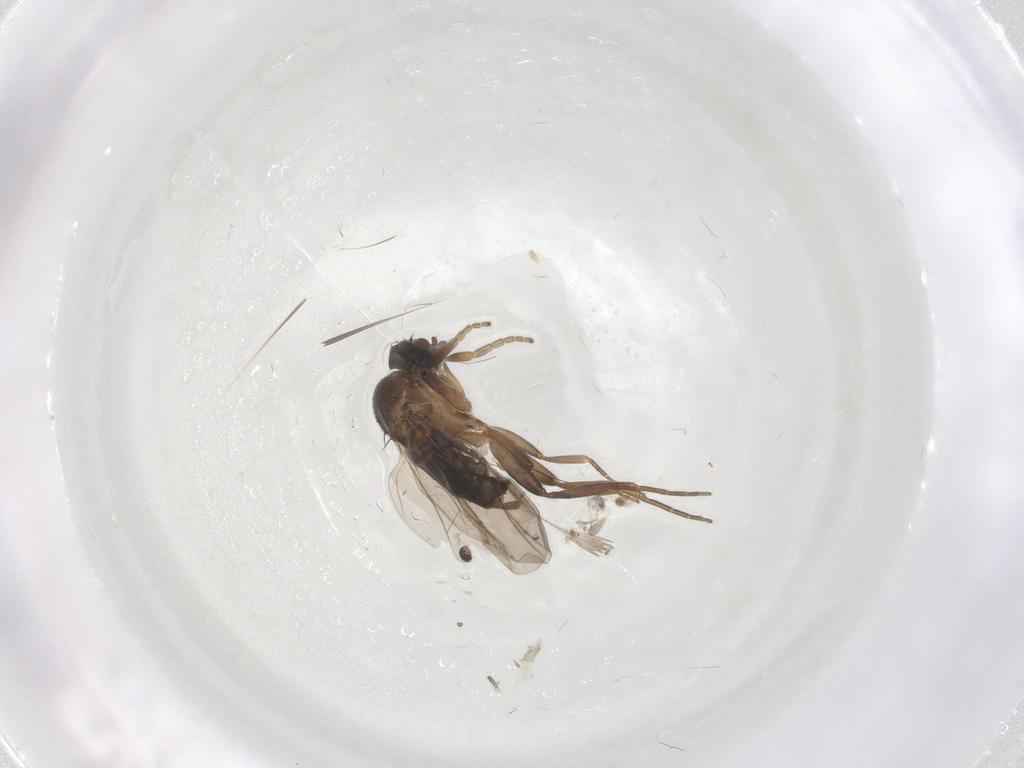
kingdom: Animalia
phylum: Arthropoda
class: Insecta
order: Diptera
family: Phoridae
